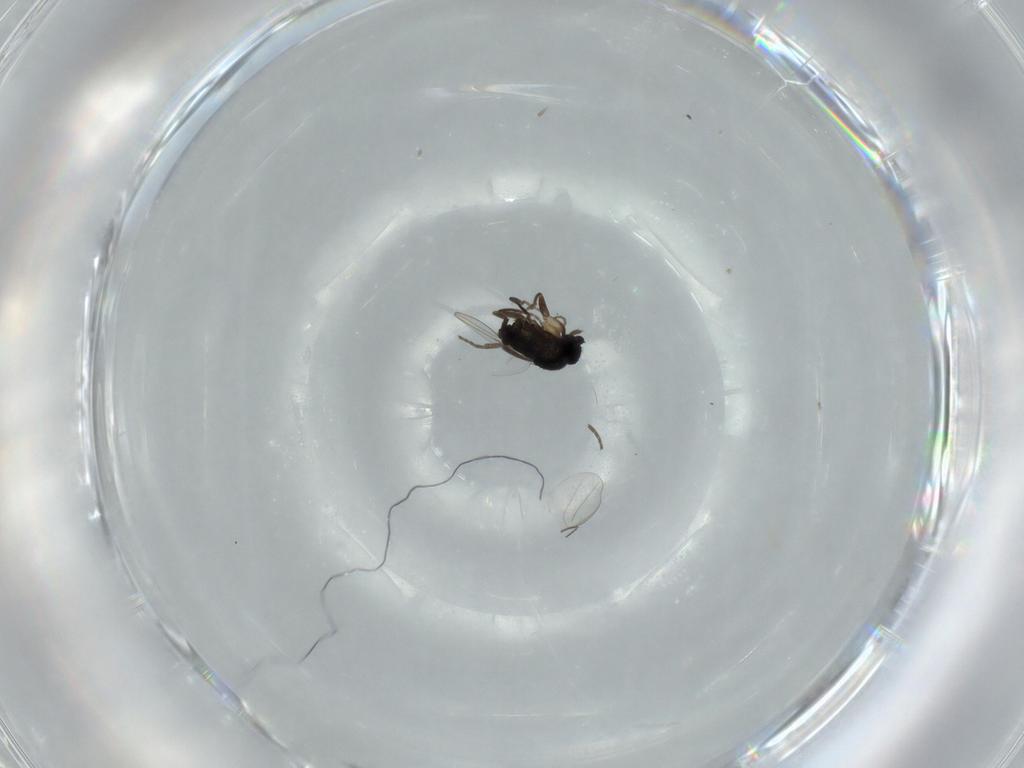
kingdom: Animalia
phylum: Arthropoda
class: Insecta
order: Diptera
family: Phoridae
